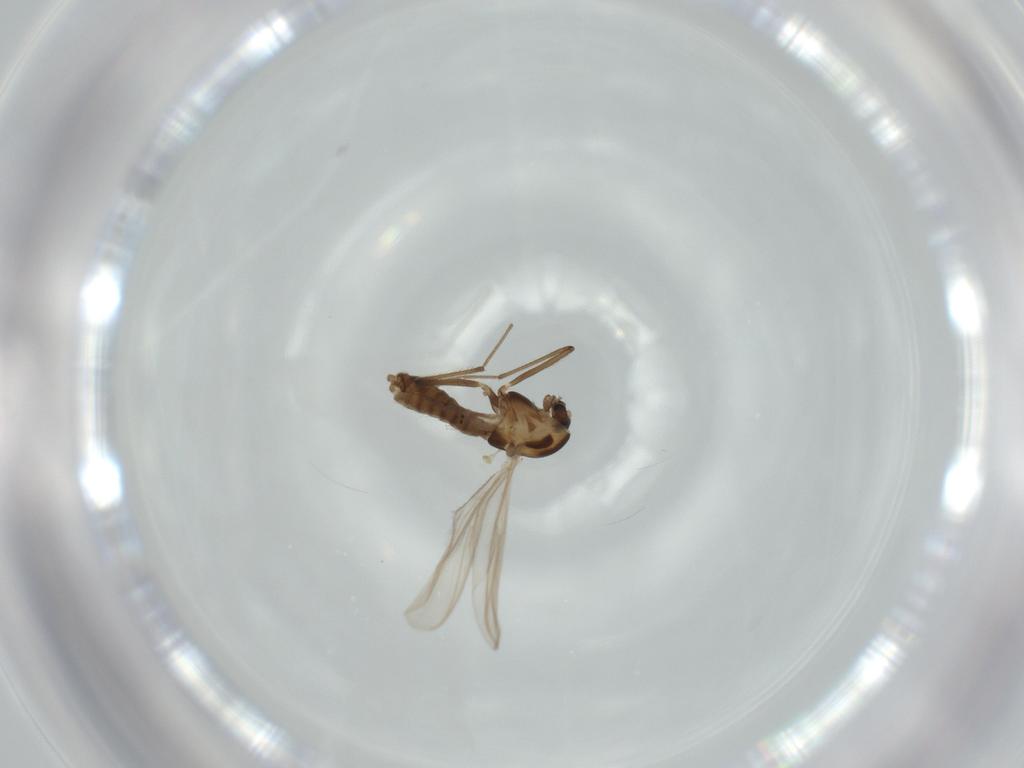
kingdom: Animalia
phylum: Arthropoda
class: Insecta
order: Diptera
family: Chironomidae
